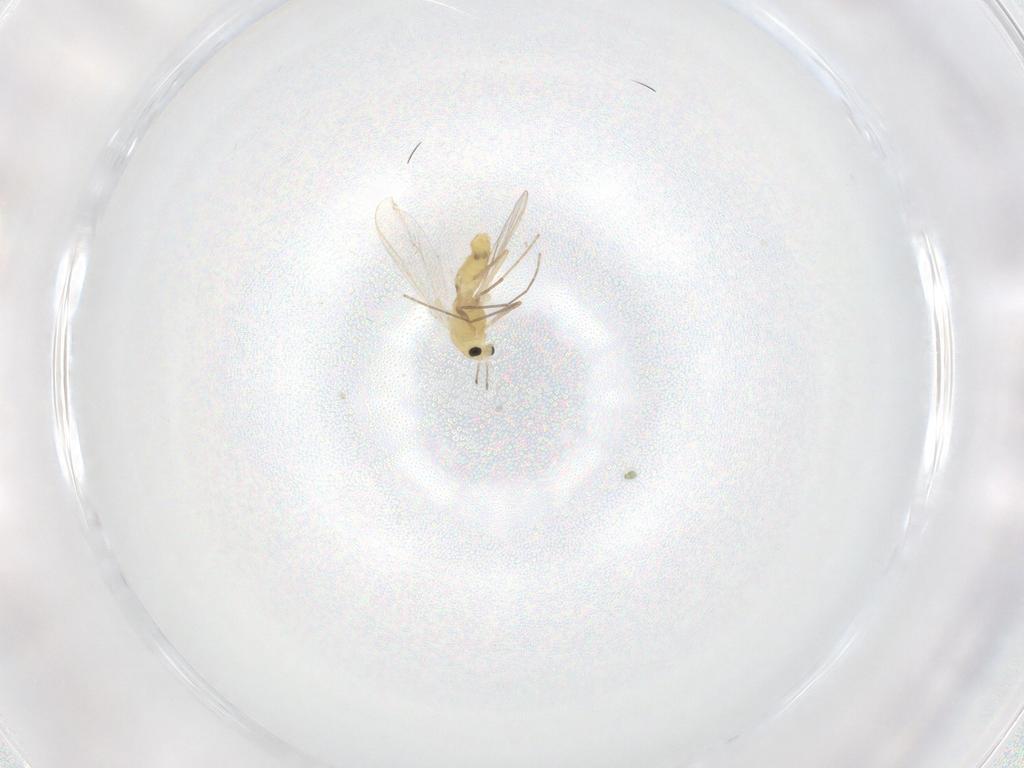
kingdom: Animalia
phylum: Arthropoda
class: Insecta
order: Diptera
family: Chironomidae
